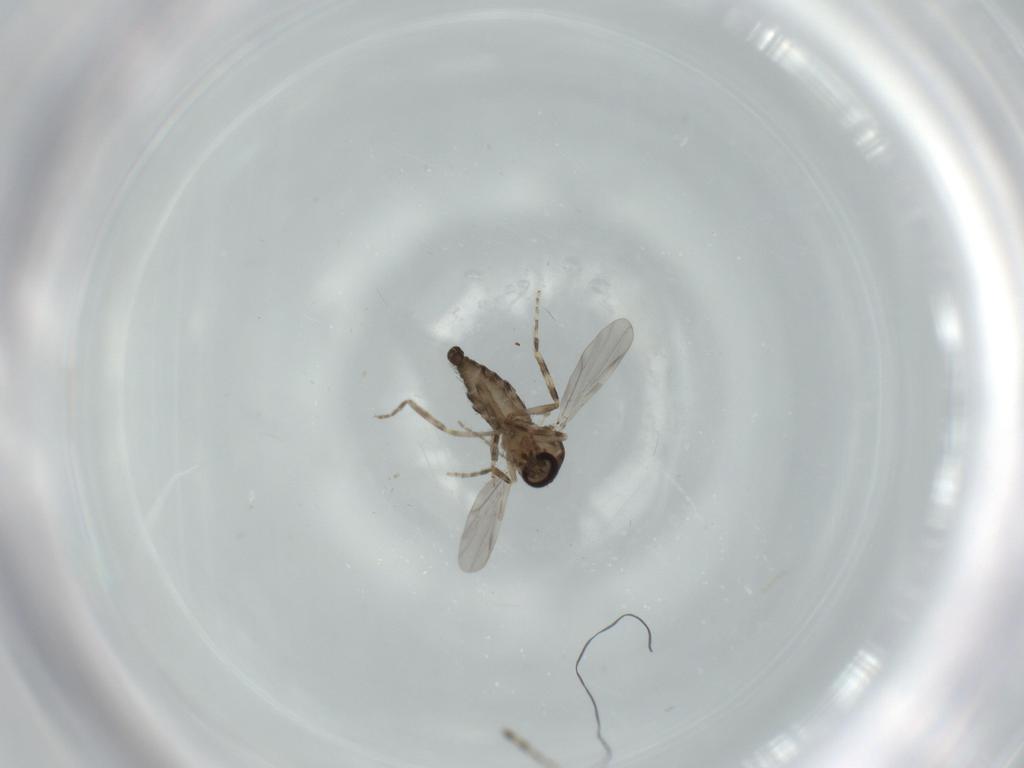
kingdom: Animalia
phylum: Arthropoda
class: Insecta
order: Diptera
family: Ceratopogonidae
